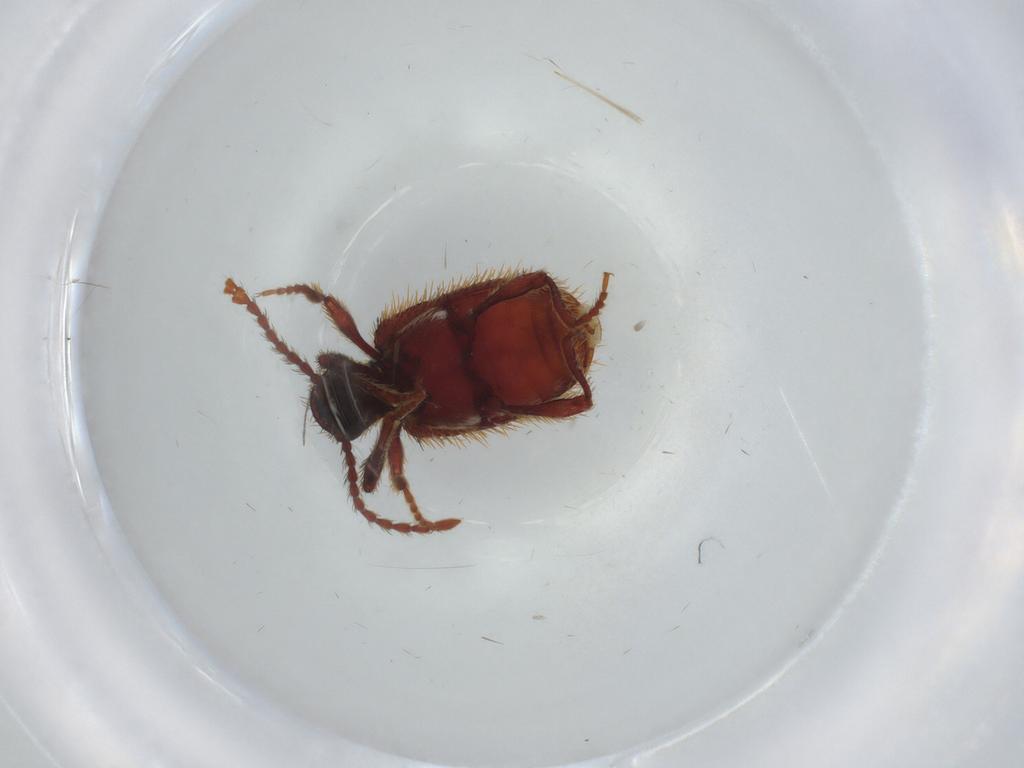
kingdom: Animalia
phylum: Arthropoda
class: Insecta
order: Coleoptera
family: Ptinidae
